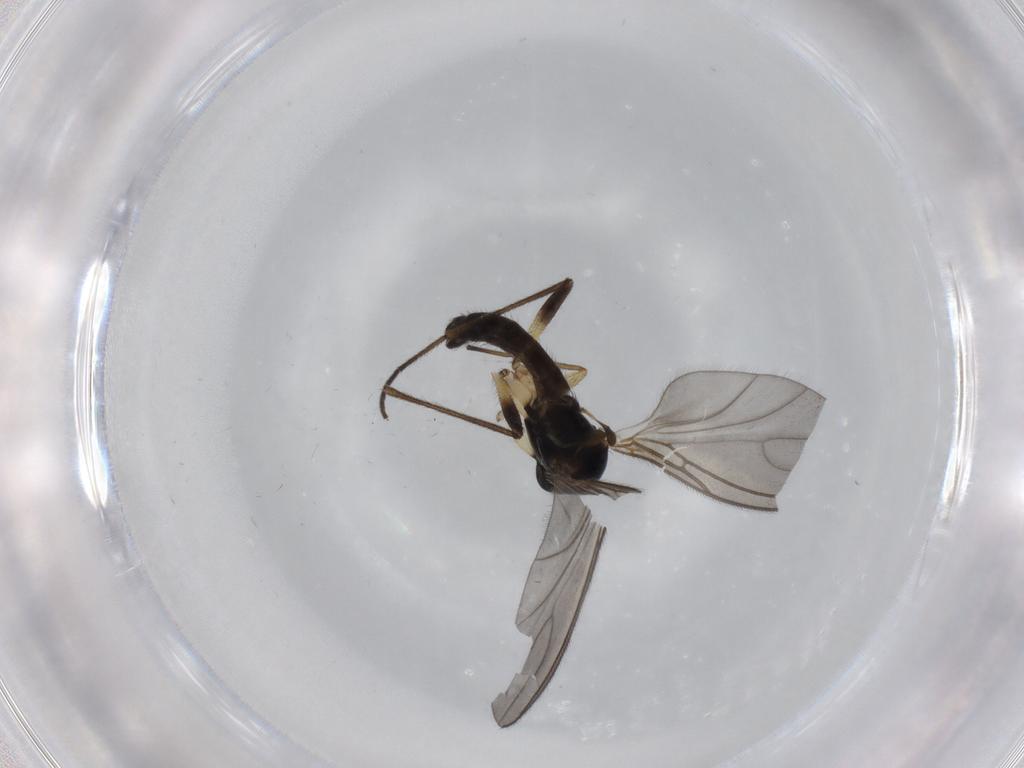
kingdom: Animalia
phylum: Arthropoda
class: Insecta
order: Diptera
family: Sciaridae
